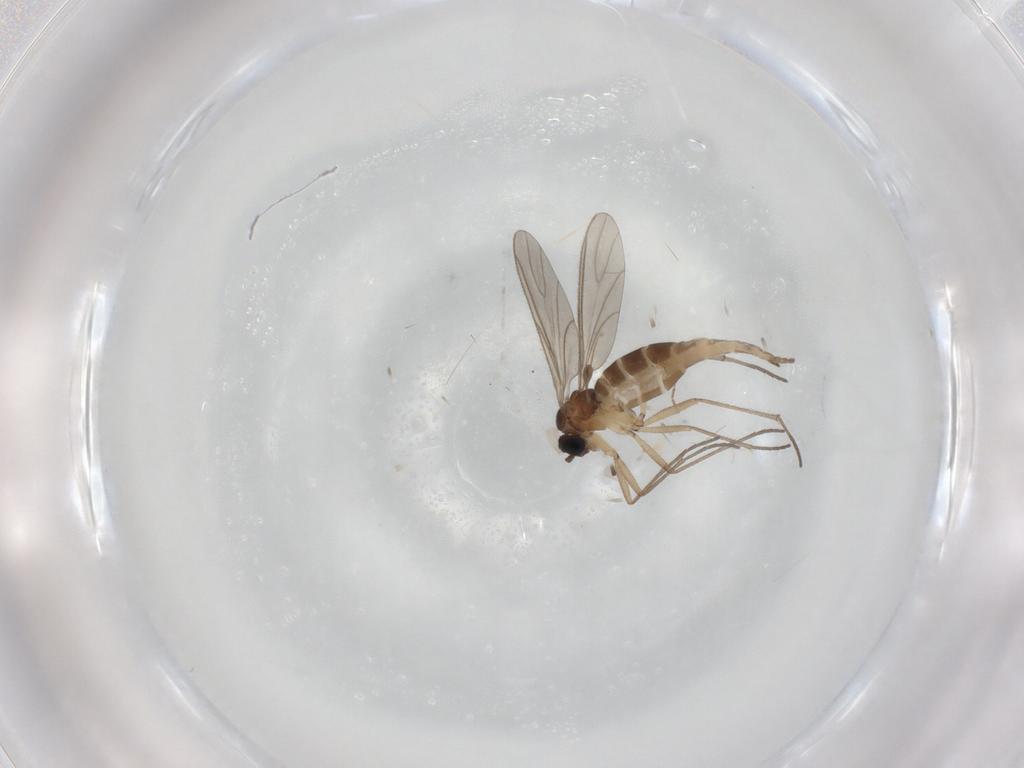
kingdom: Animalia
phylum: Arthropoda
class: Insecta
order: Diptera
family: Sciaridae
